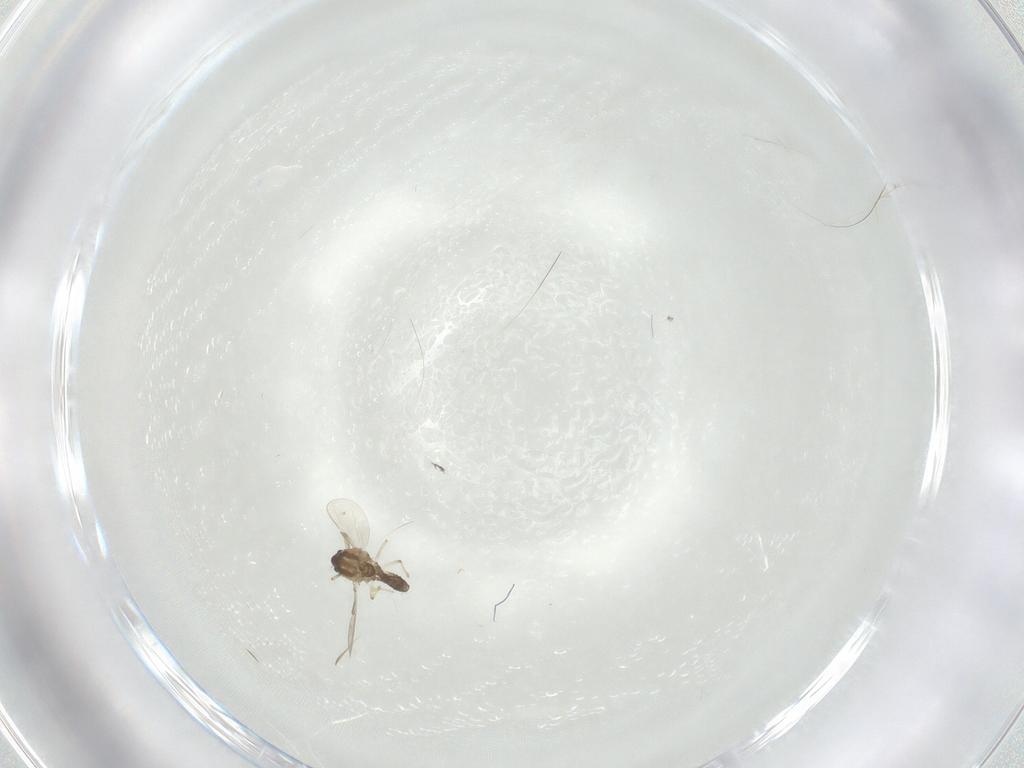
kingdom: Animalia
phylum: Arthropoda
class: Insecta
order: Diptera
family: Chironomidae
